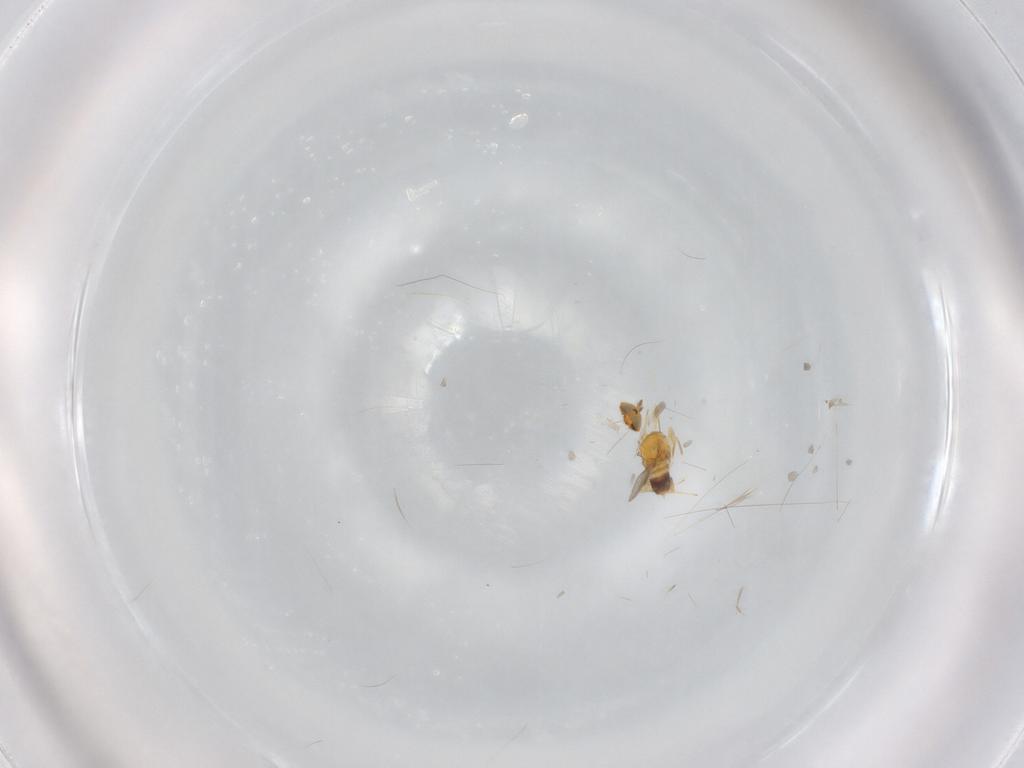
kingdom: Animalia
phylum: Arthropoda
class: Insecta
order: Hymenoptera
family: Aphelinidae
